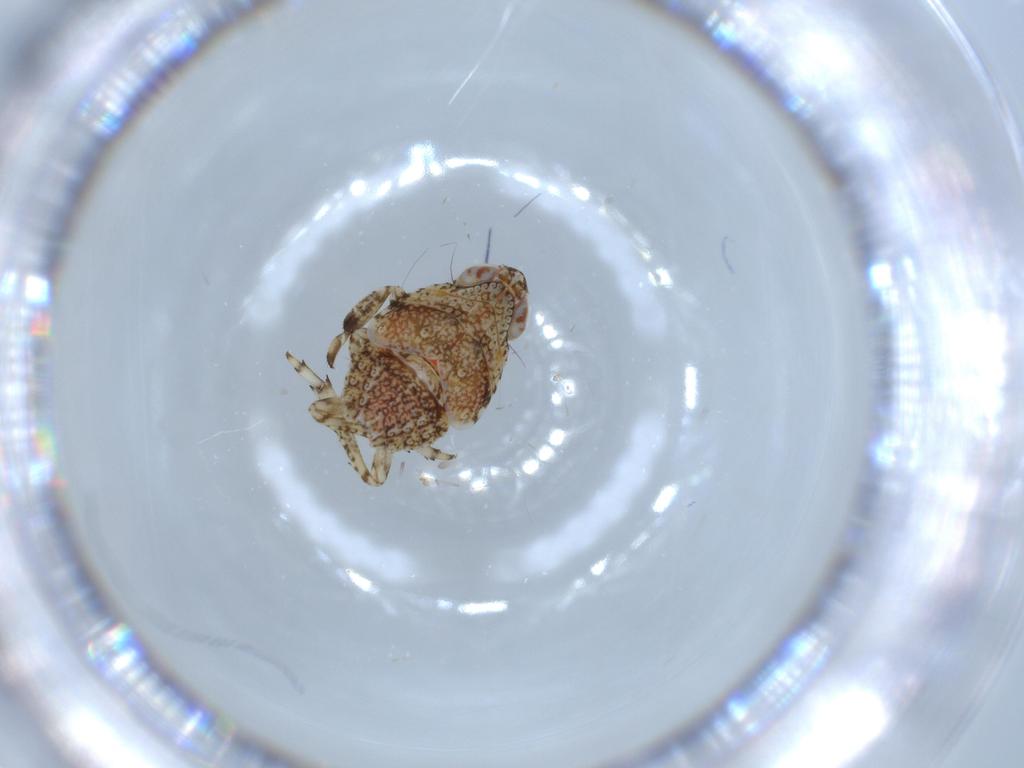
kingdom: Animalia
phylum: Arthropoda
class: Insecta
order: Hemiptera
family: Issidae
